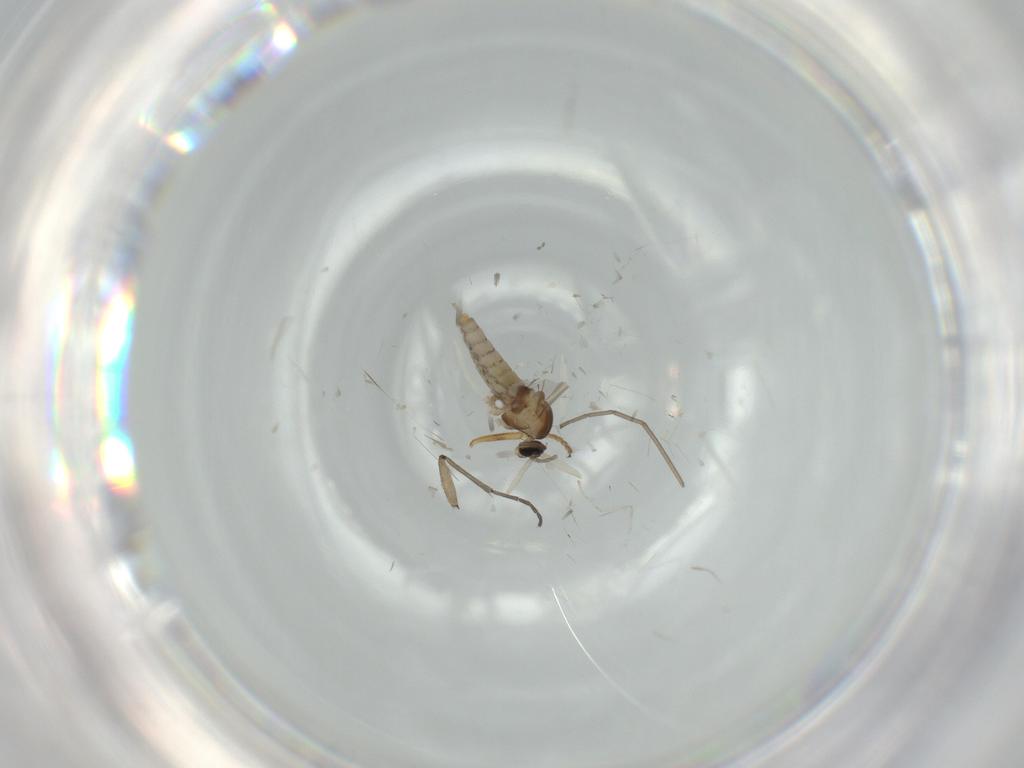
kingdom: Animalia
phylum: Arthropoda
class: Insecta
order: Diptera
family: Cecidomyiidae
